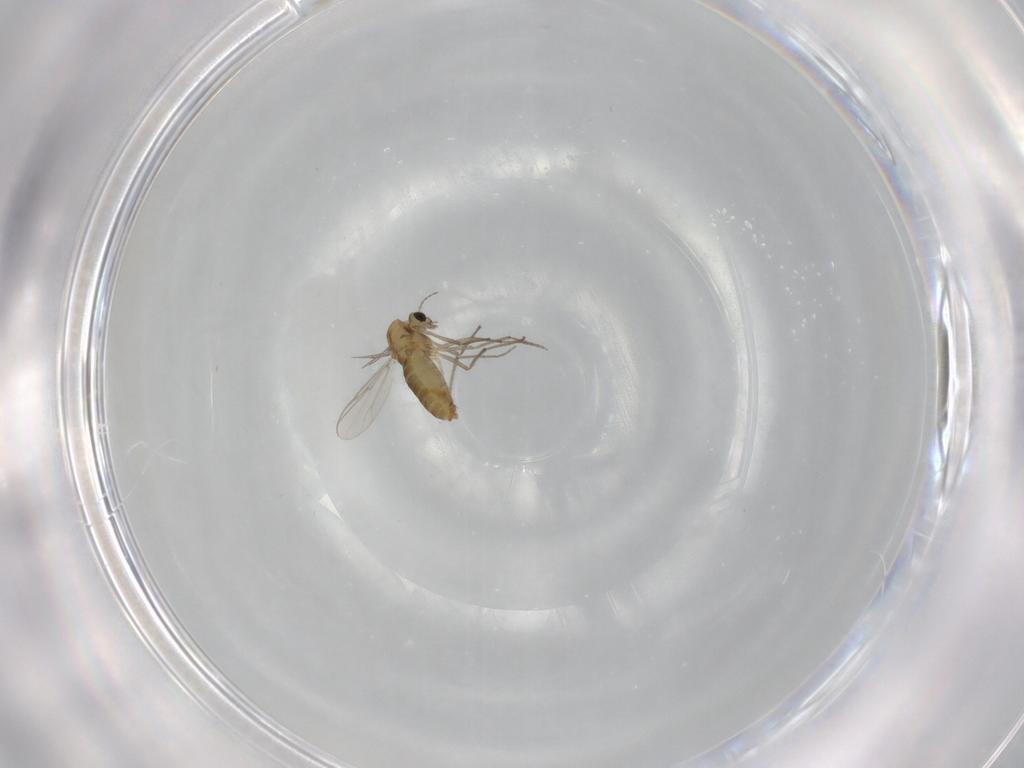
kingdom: Animalia
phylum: Arthropoda
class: Insecta
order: Diptera
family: Chironomidae
